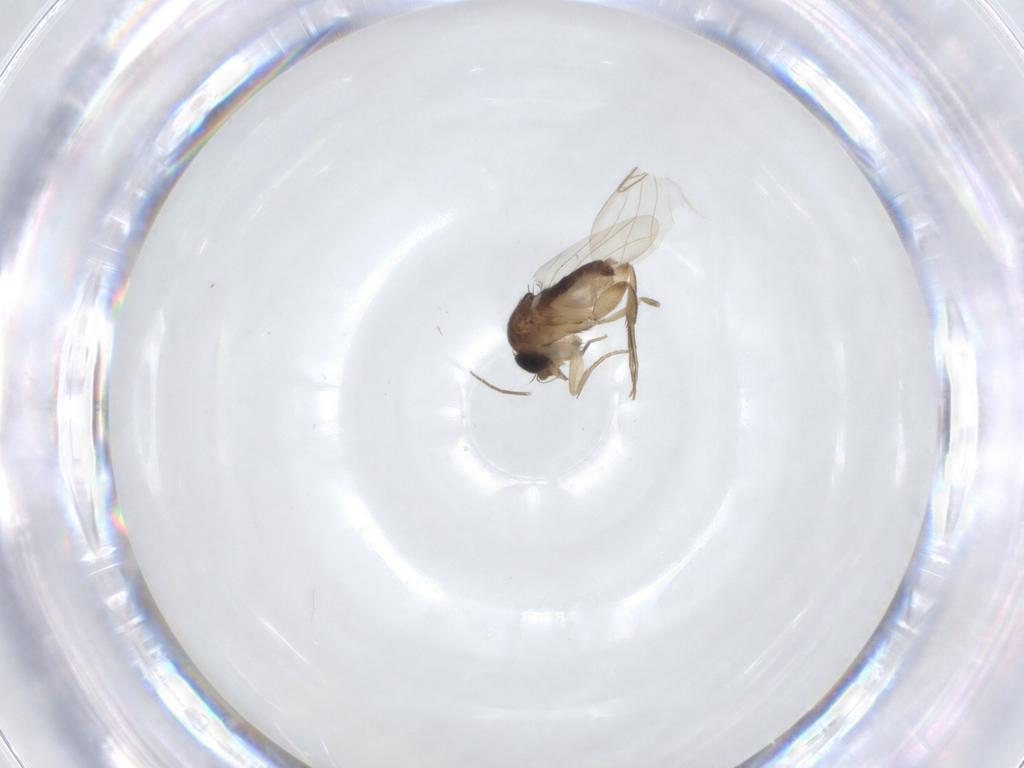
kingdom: Animalia
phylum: Arthropoda
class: Insecta
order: Diptera
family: Phoridae
